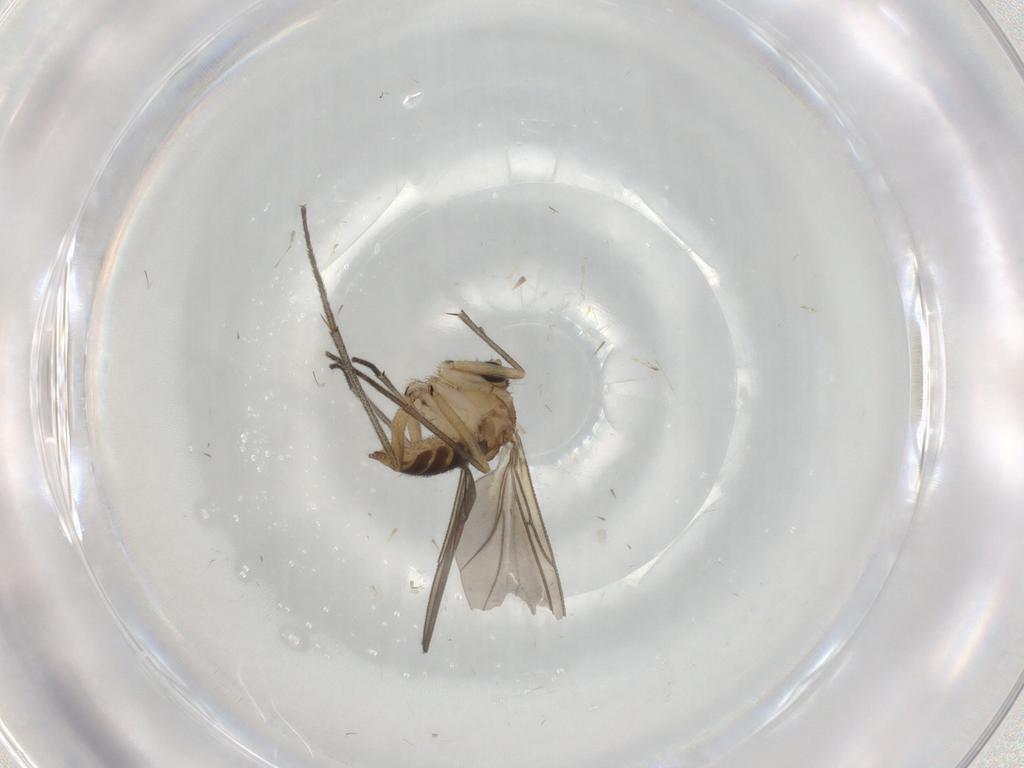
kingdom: Animalia
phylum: Arthropoda
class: Insecta
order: Diptera
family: Sciaridae
